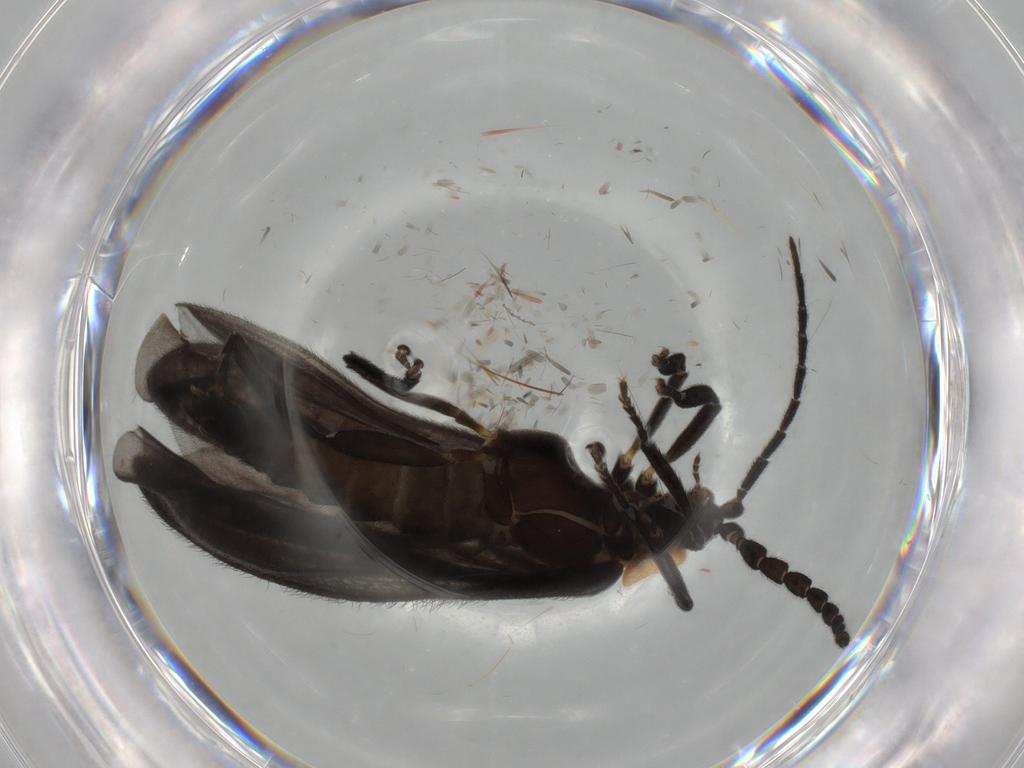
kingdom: Animalia
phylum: Arthropoda
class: Insecta
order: Coleoptera
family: Lycidae
